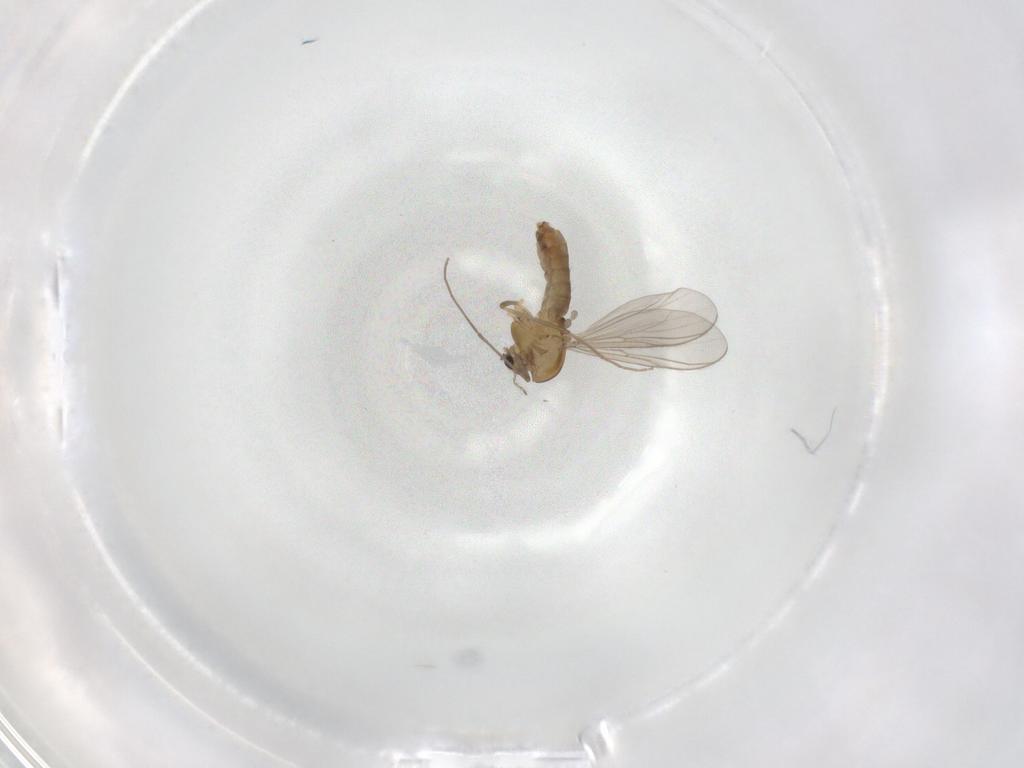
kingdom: Animalia
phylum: Arthropoda
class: Insecta
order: Diptera
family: Chironomidae
